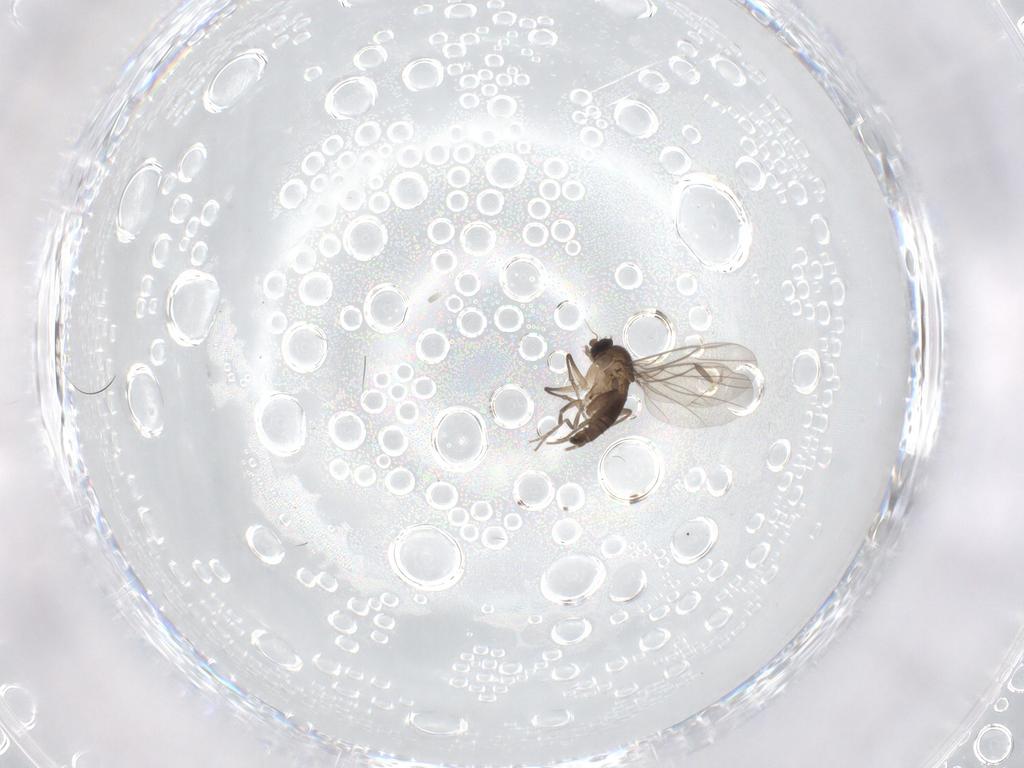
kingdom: Animalia
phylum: Arthropoda
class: Insecta
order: Diptera
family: Phoridae
